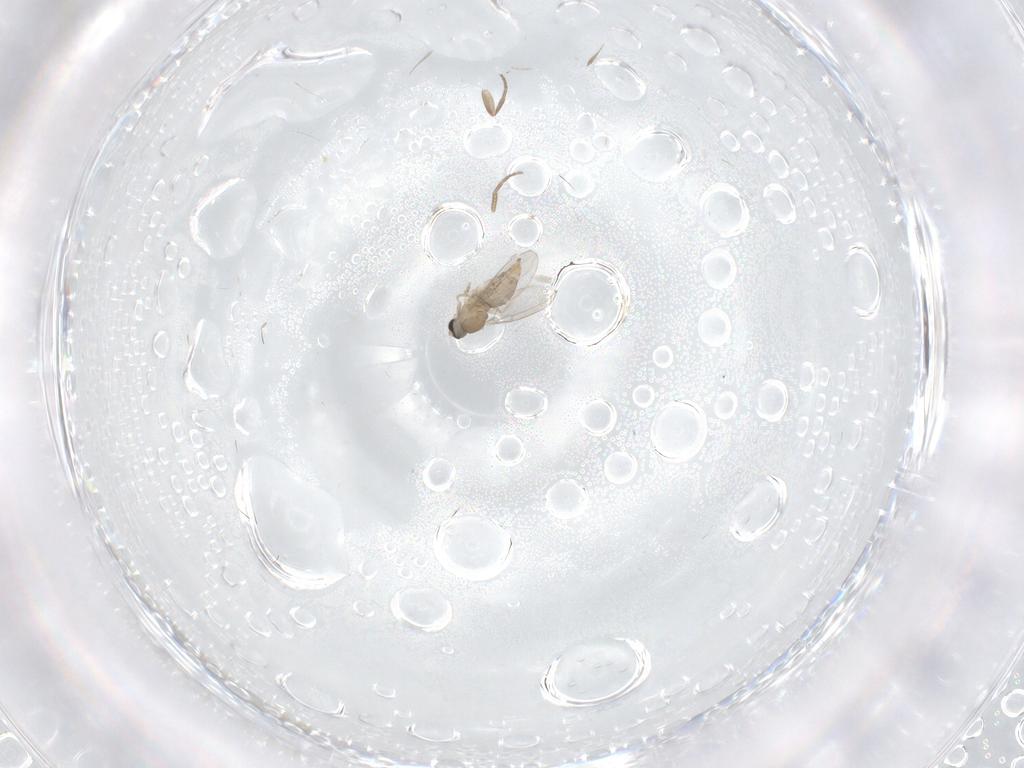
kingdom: Animalia
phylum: Arthropoda
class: Insecta
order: Diptera
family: Cecidomyiidae
